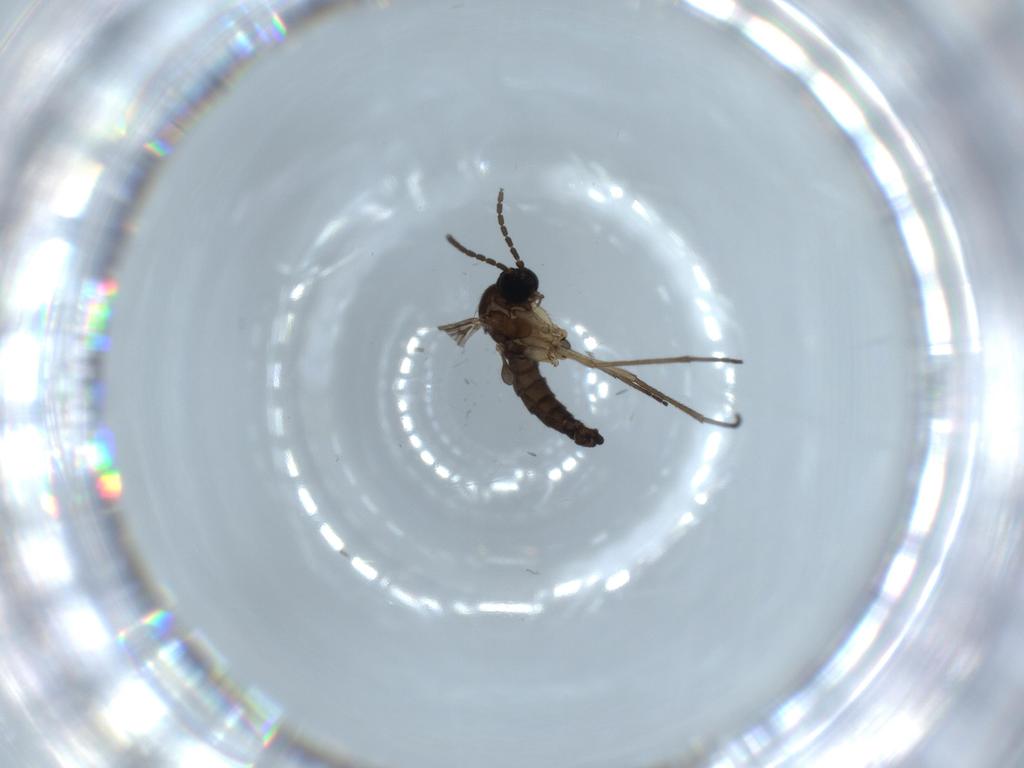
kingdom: Animalia
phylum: Arthropoda
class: Insecta
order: Diptera
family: Sciaridae
